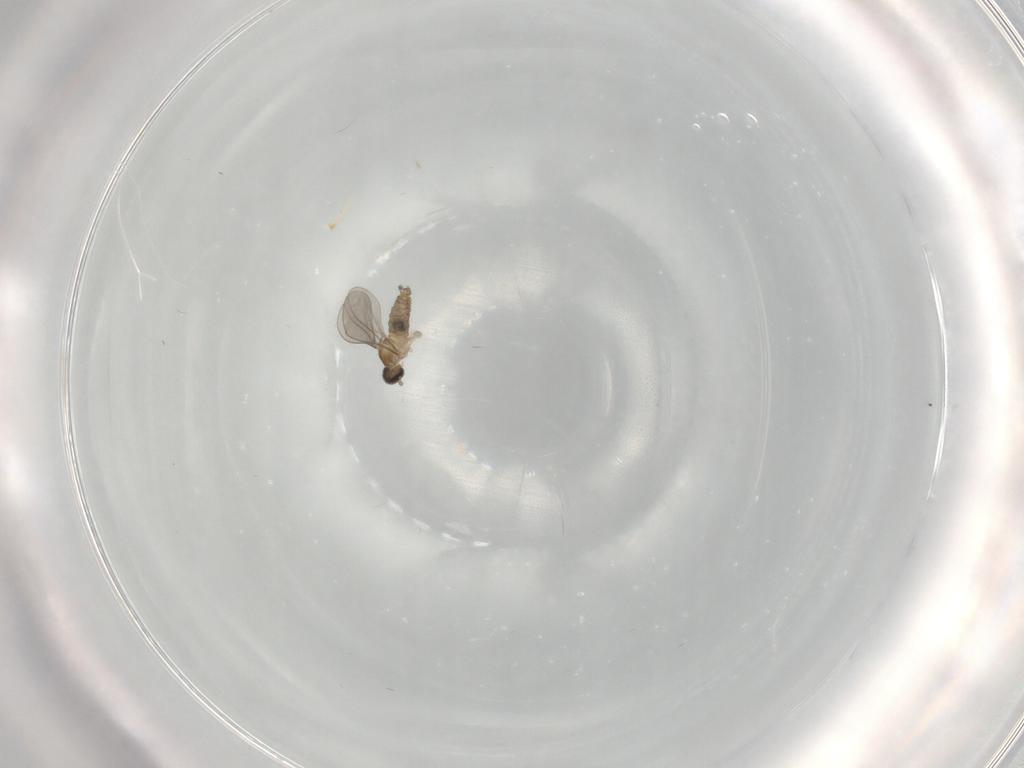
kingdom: Animalia
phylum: Arthropoda
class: Insecta
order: Diptera
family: Cecidomyiidae
